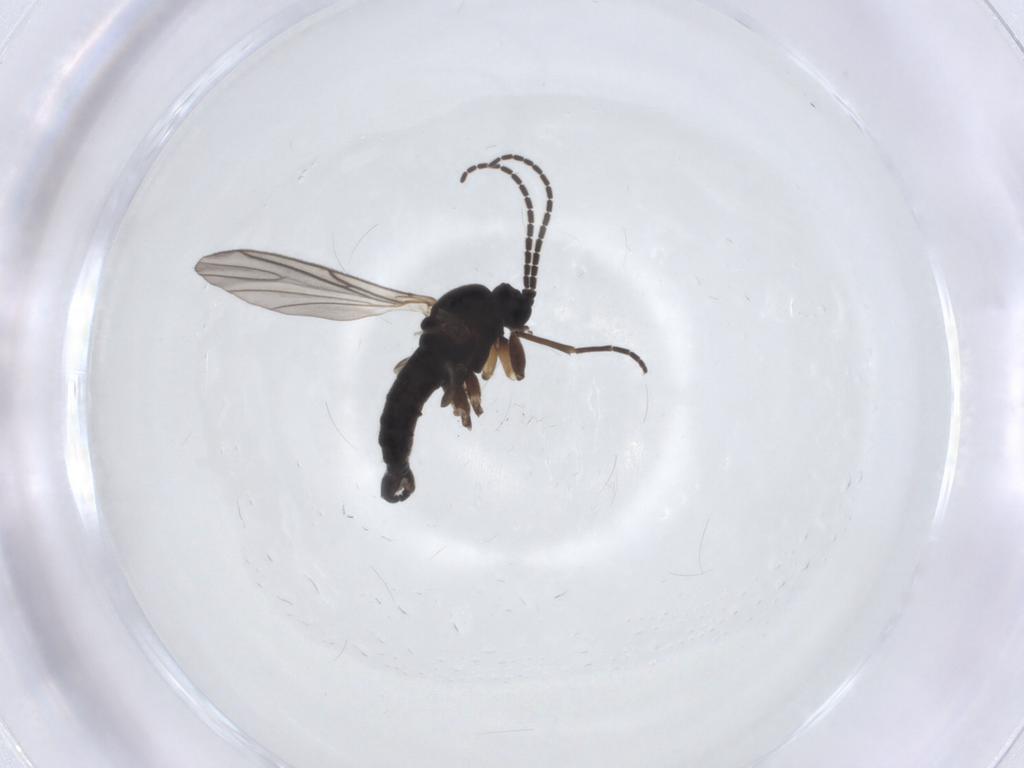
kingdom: Animalia
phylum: Arthropoda
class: Insecta
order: Diptera
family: Sciaridae
